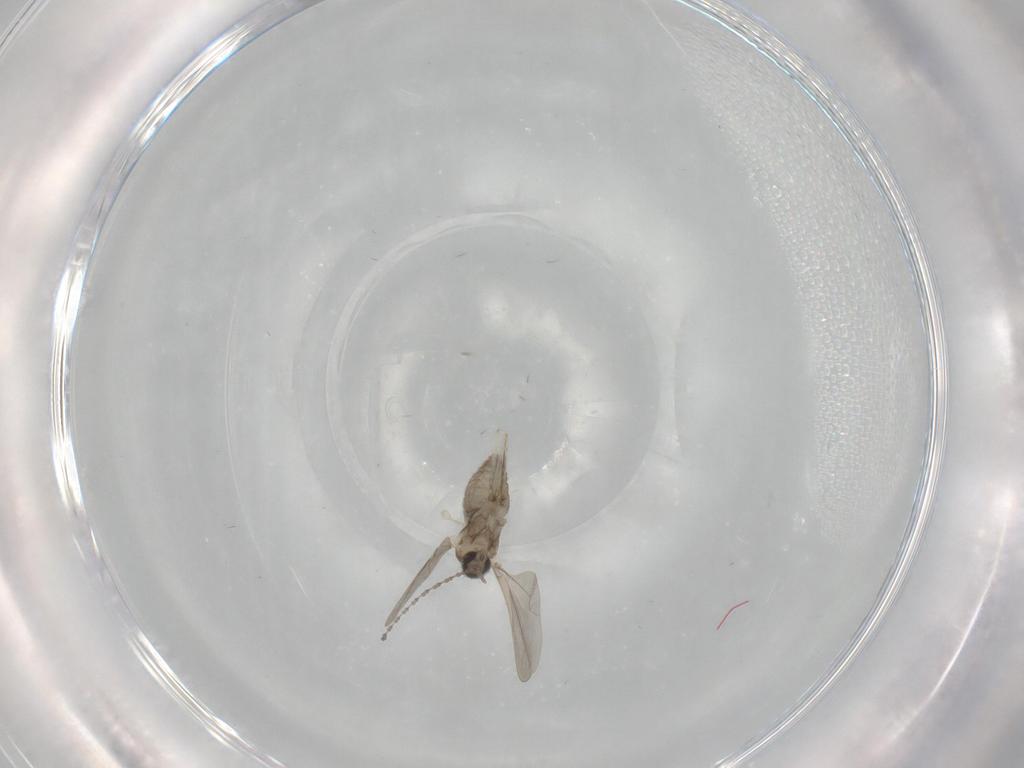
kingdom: Animalia
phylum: Arthropoda
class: Insecta
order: Diptera
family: Cecidomyiidae
